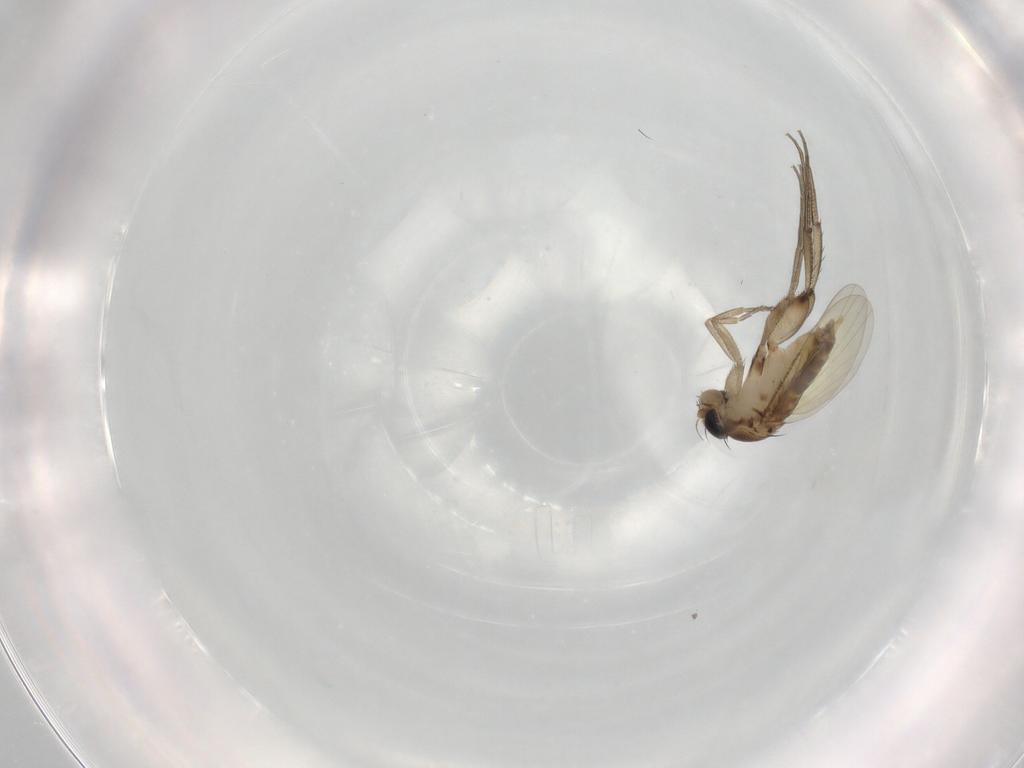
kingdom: Animalia
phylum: Arthropoda
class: Insecta
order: Diptera
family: Phoridae
